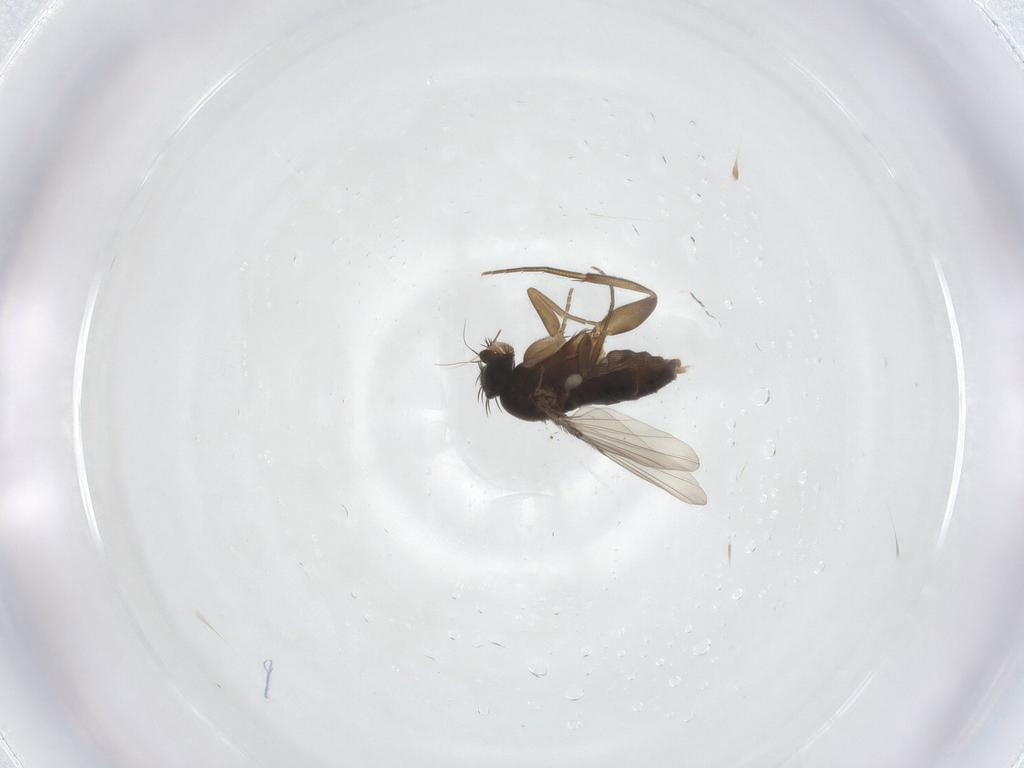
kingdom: Animalia
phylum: Arthropoda
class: Insecta
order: Diptera
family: Phoridae
